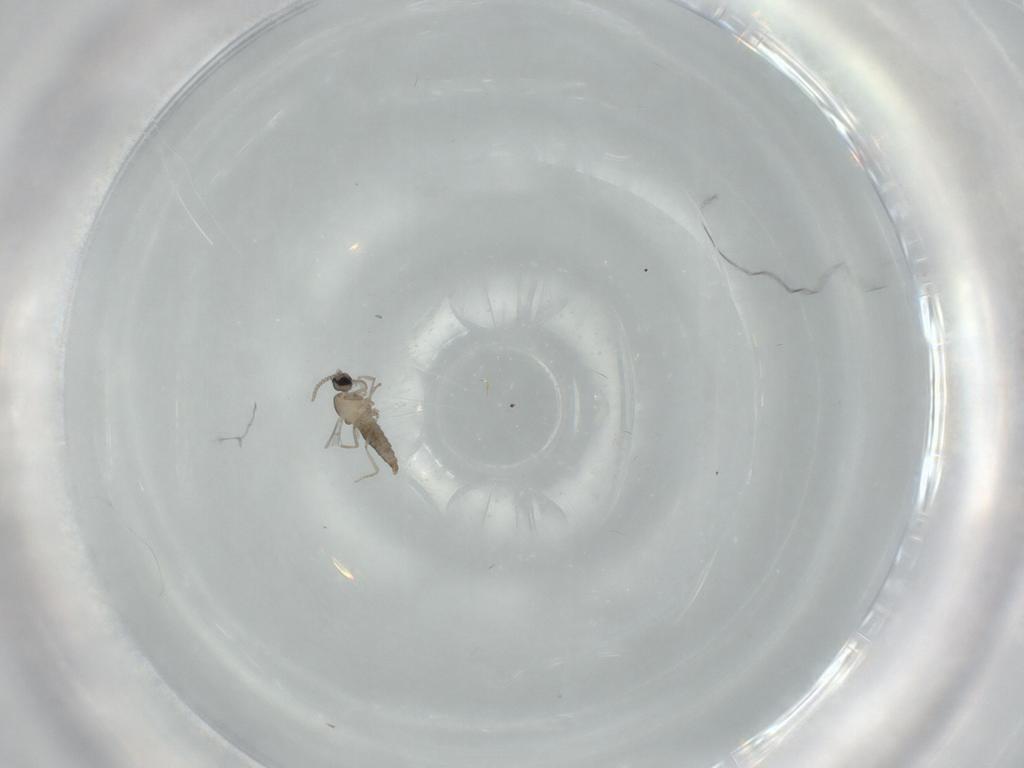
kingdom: Animalia
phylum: Arthropoda
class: Insecta
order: Diptera
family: Cecidomyiidae
